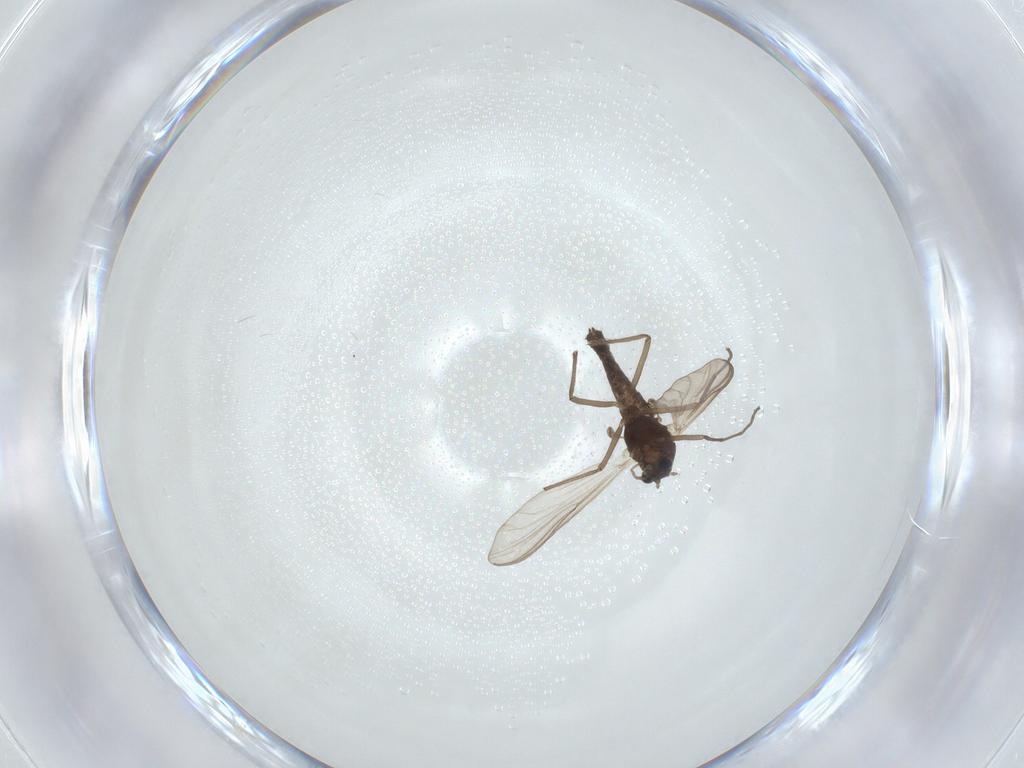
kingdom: Animalia
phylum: Arthropoda
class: Insecta
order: Diptera
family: Chironomidae
